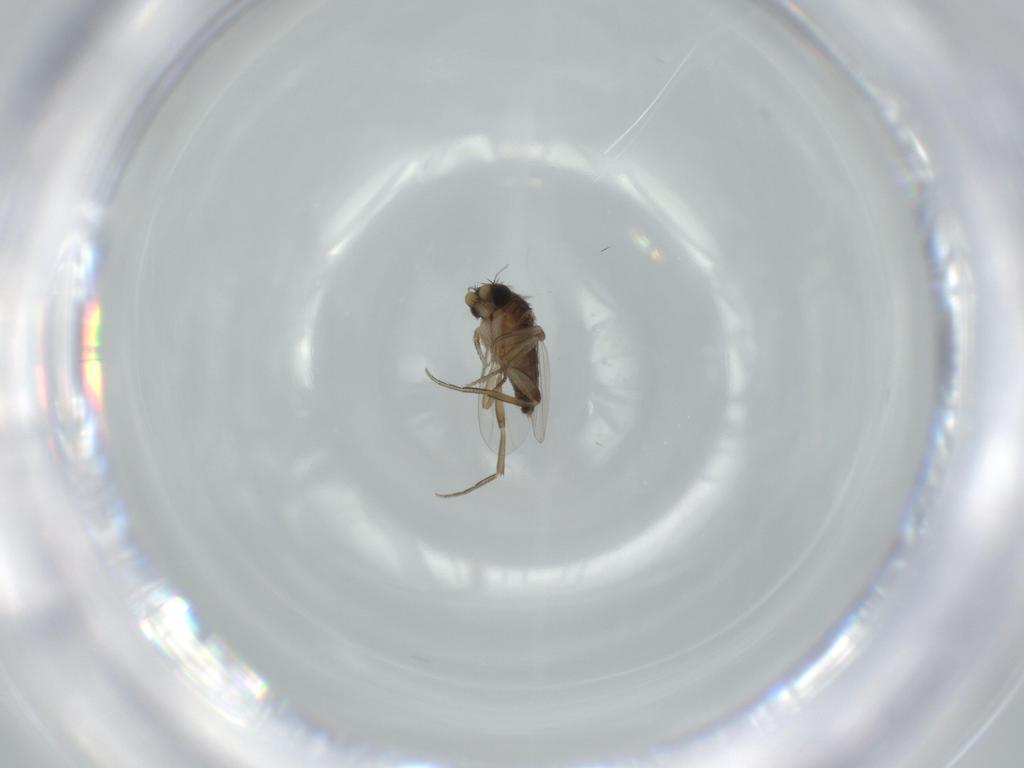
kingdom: Animalia
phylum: Arthropoda
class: Insecta
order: Diptera
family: Phoridae
